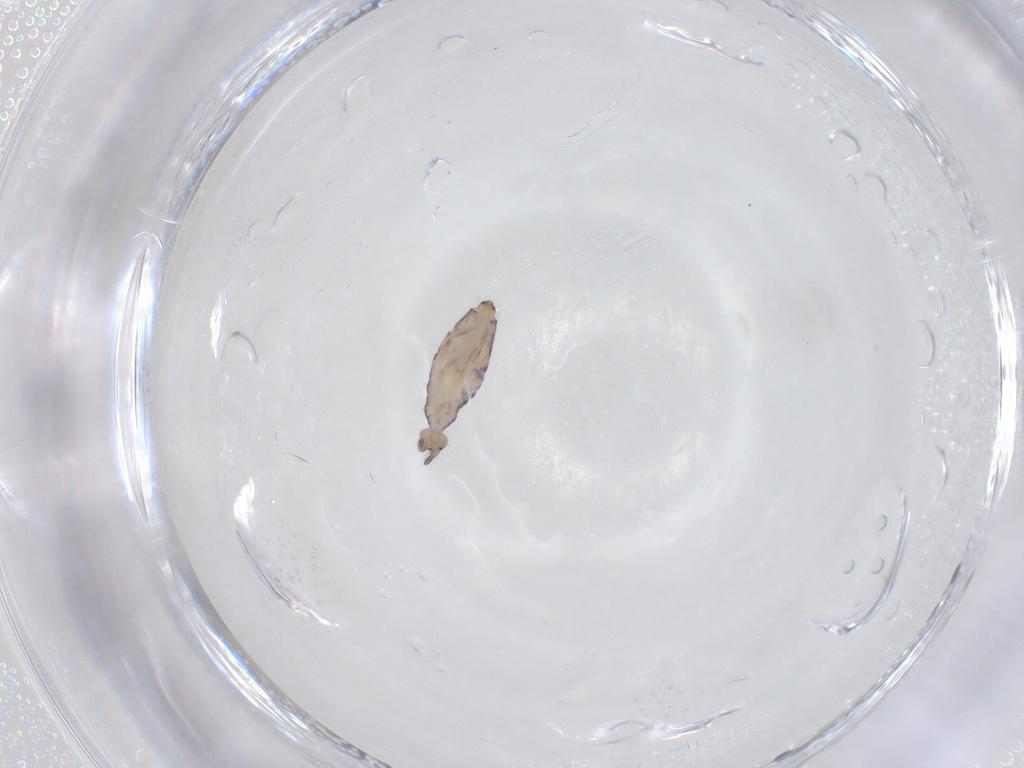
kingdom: Animalia
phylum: Arthropoda
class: Collembola
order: Entomobryomorpha
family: Entomobryidae
